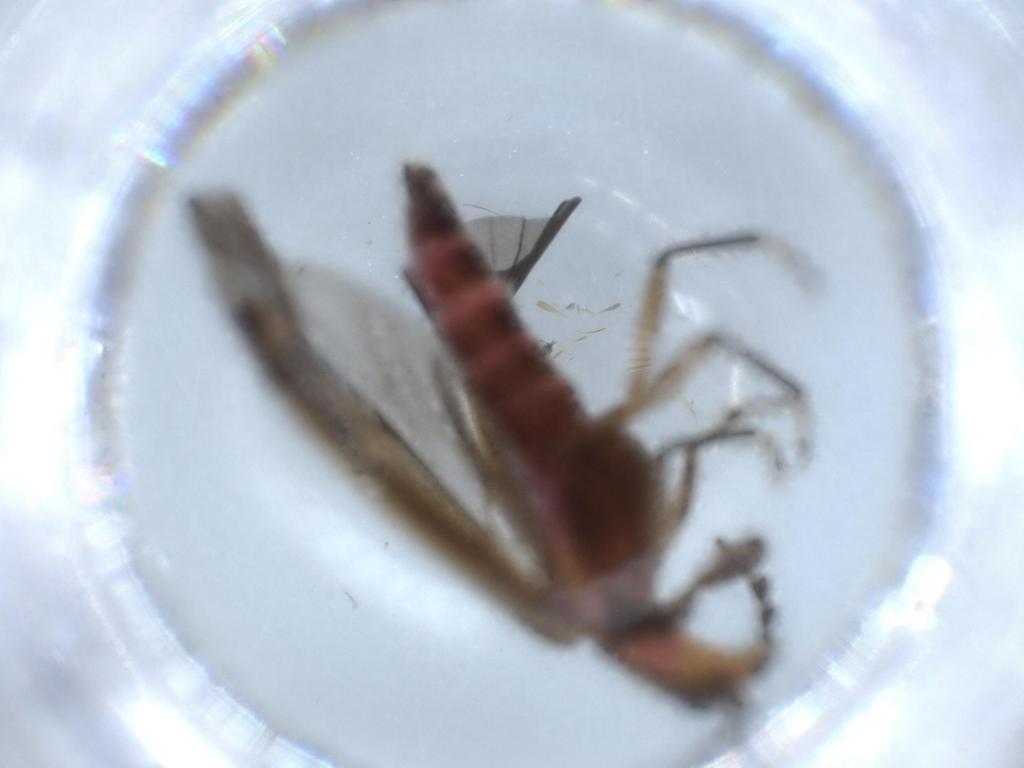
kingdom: Animalia
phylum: Arthropoda
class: Insecta
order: Coleoptera
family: Cleridae
